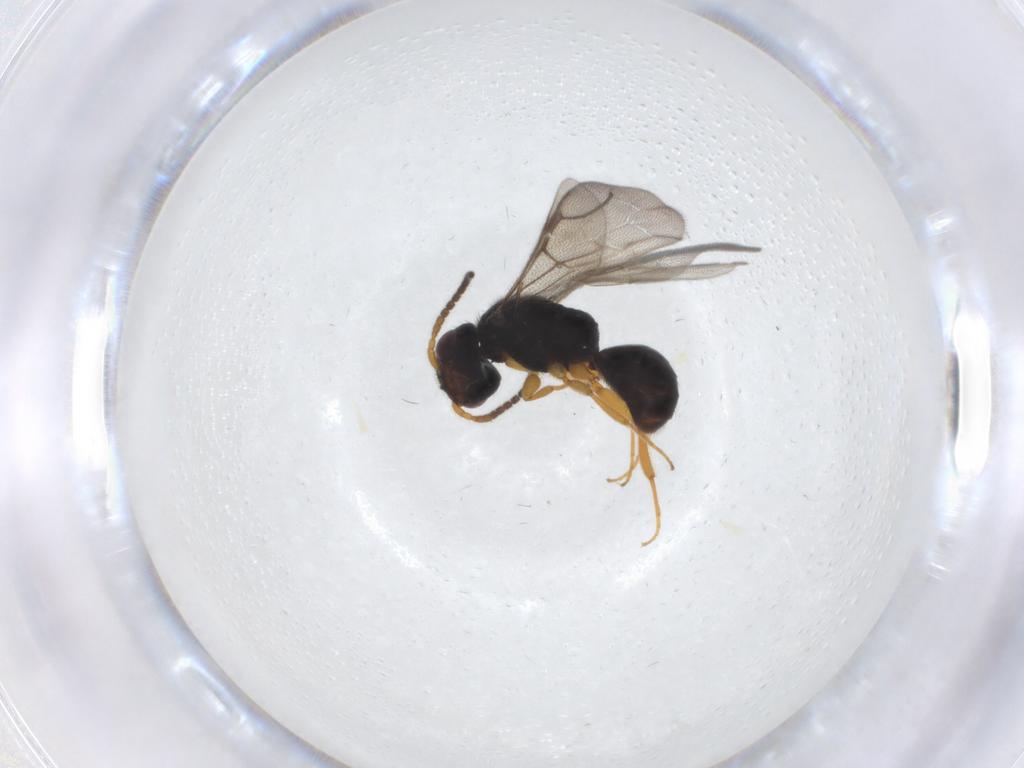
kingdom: Animalia
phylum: Arthropoda
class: Insecta
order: Hymenoptera
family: Bethylidae
